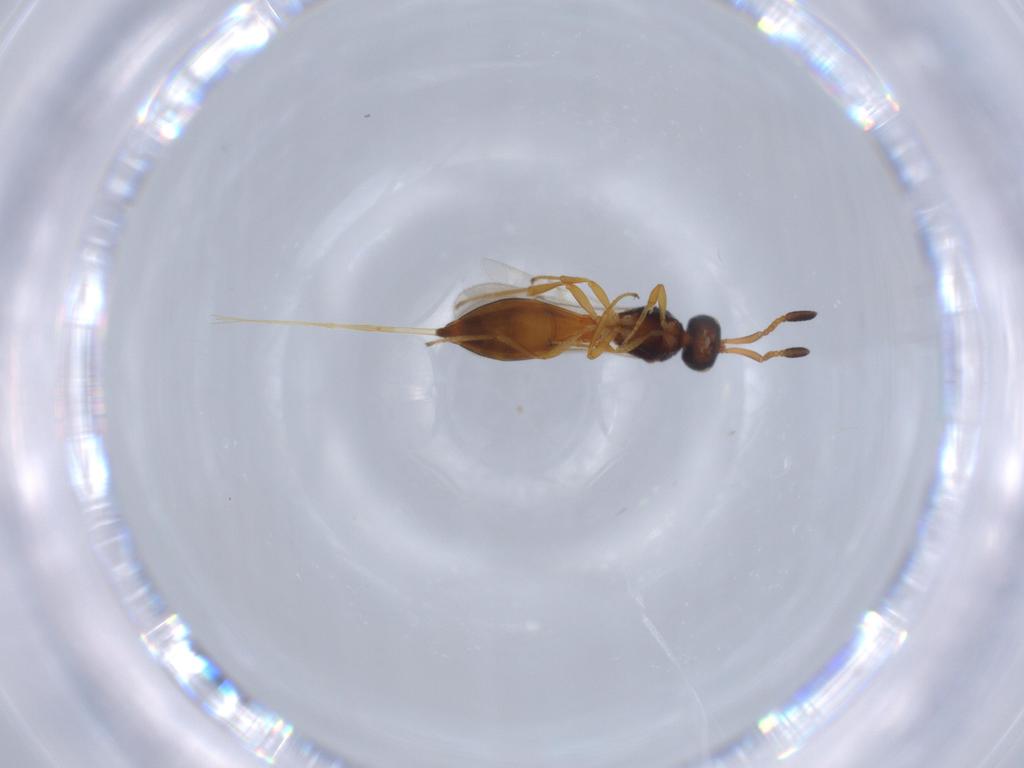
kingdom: Animalia
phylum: Arthropoda
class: Insecta
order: Hymenoptera
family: Scelionidae
